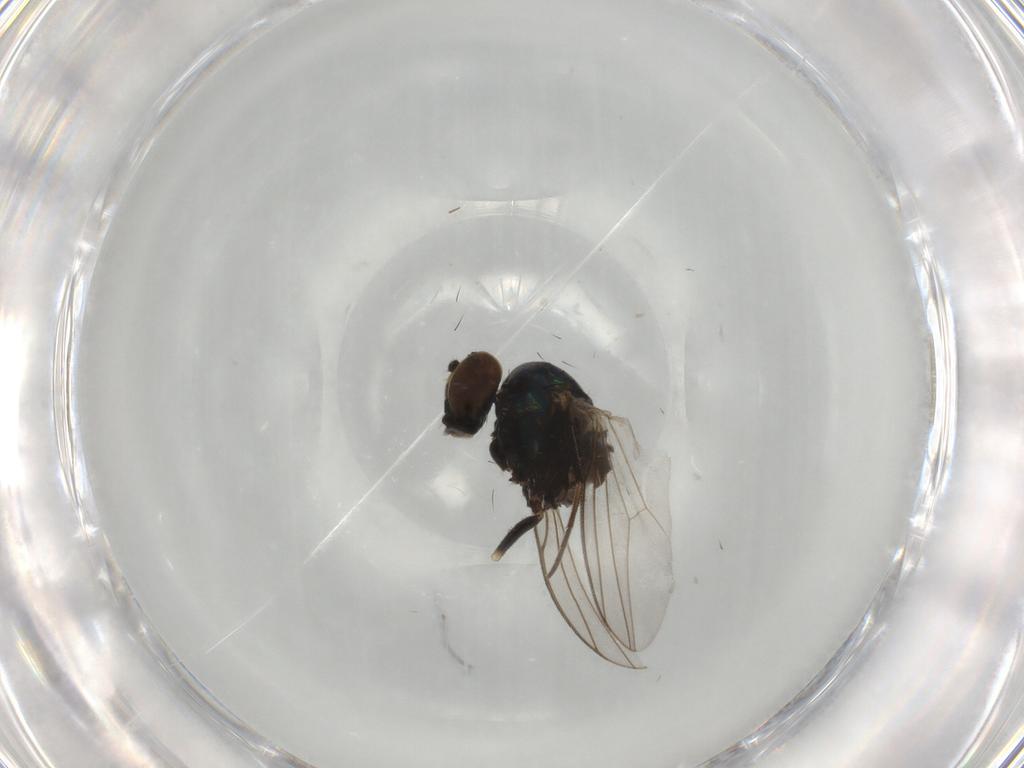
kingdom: Animalia
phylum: Arthropoda
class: Insecta
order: Diptera
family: Dolichopodidae
